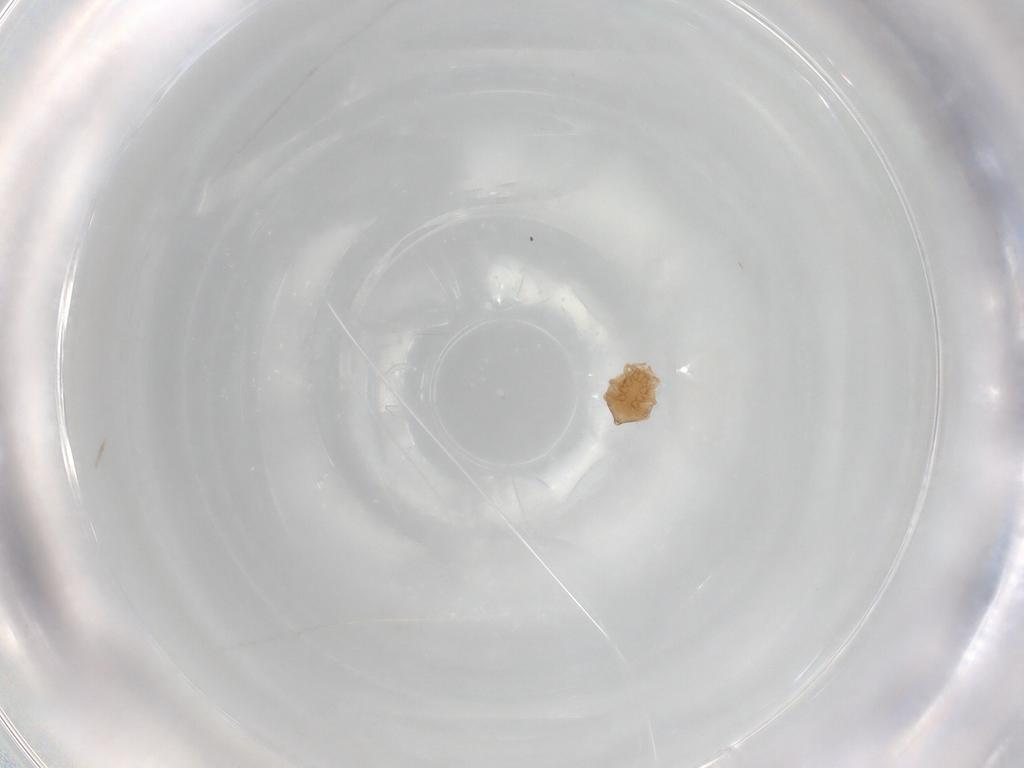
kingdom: Animalia
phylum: Arthropoda
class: Arachnida
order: Mesostigmata
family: Polyaspididae
